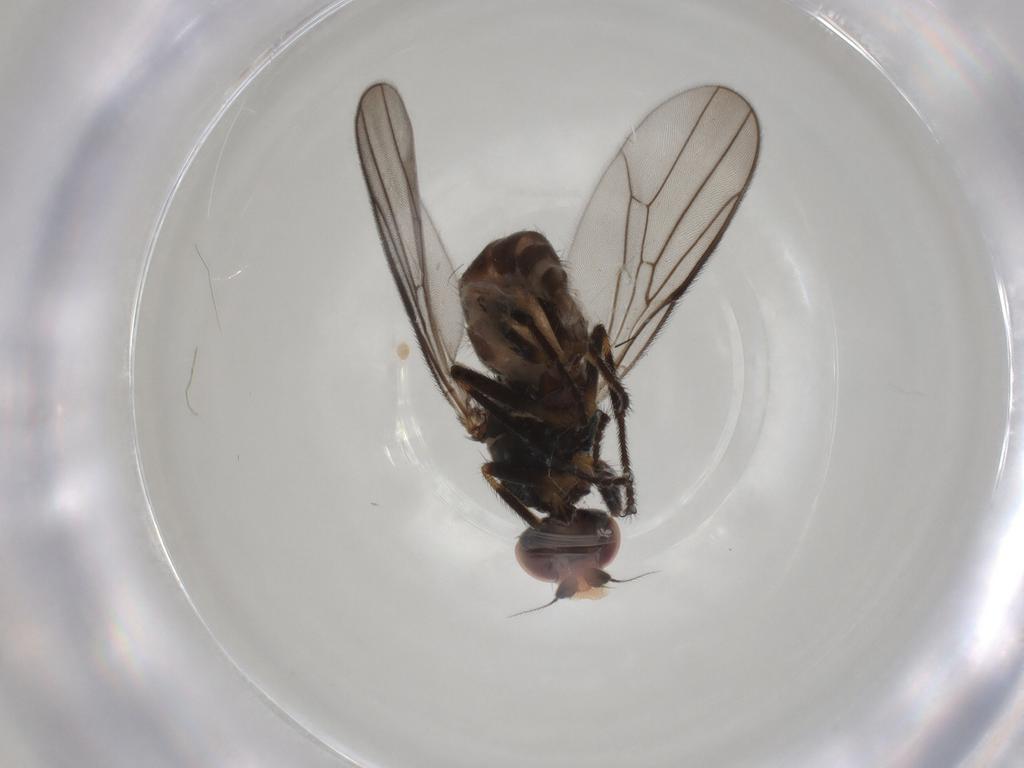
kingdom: Animalia
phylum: Arthropoda
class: Insecta
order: Diptera
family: Chloropidae
